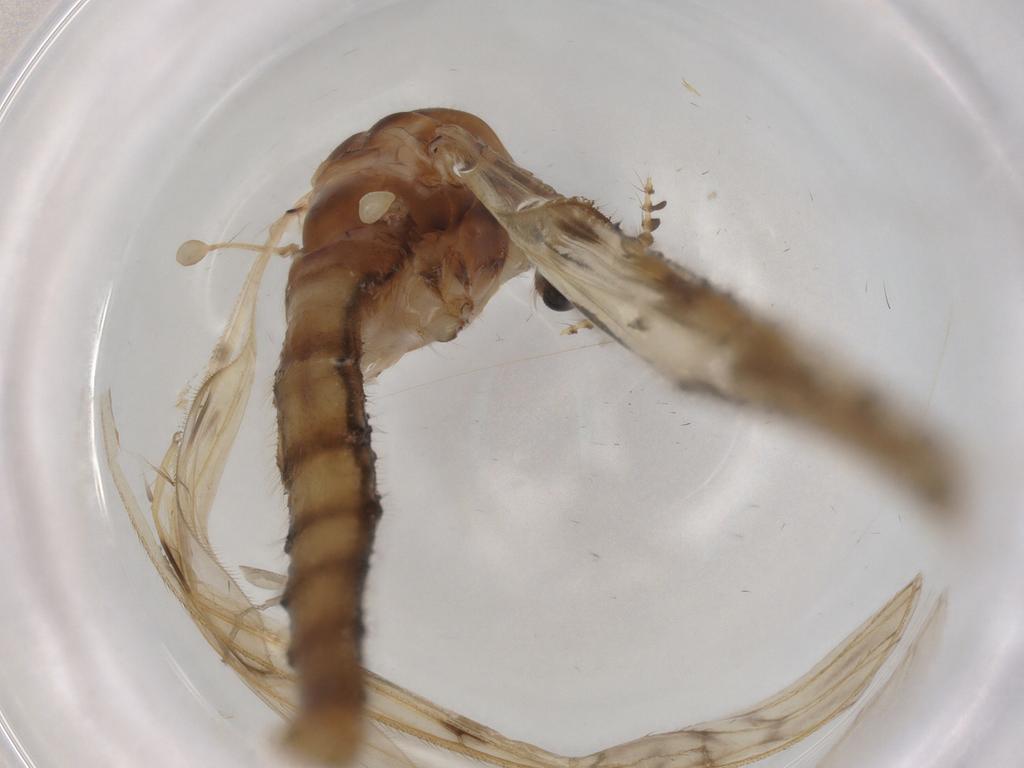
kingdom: Animalia
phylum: Arthropoda
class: Insecta
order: Diptera
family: Limoniidae
